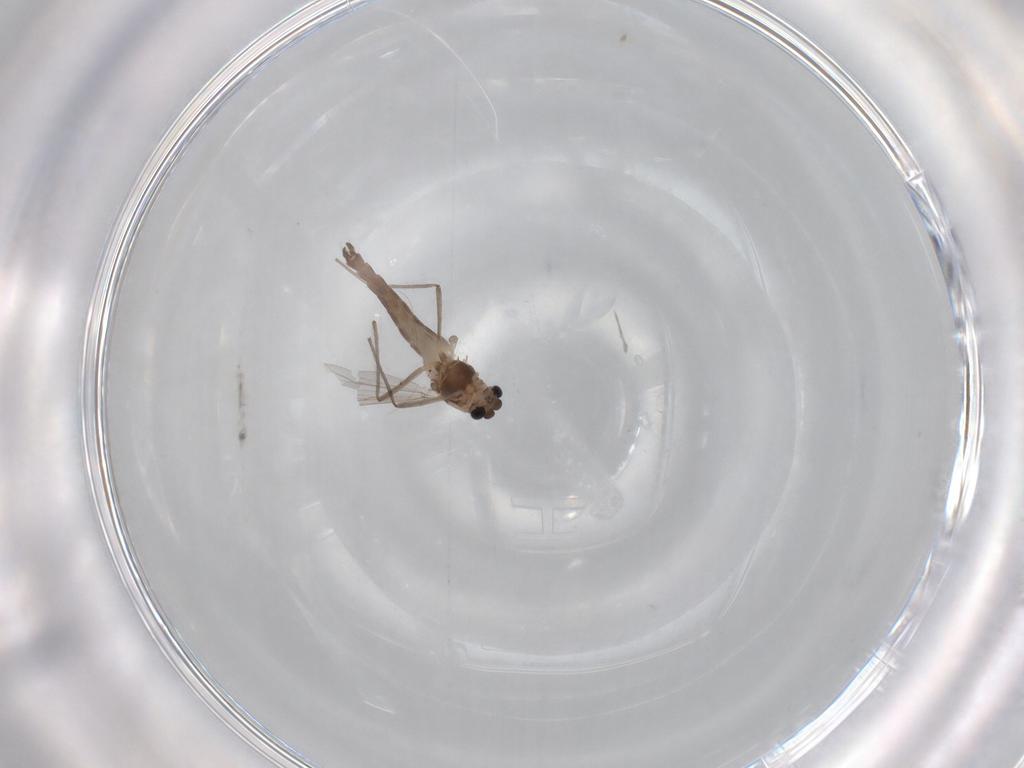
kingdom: Animalia
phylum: Arthropoda
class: Insecta
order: Diptera
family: Chironomidae
